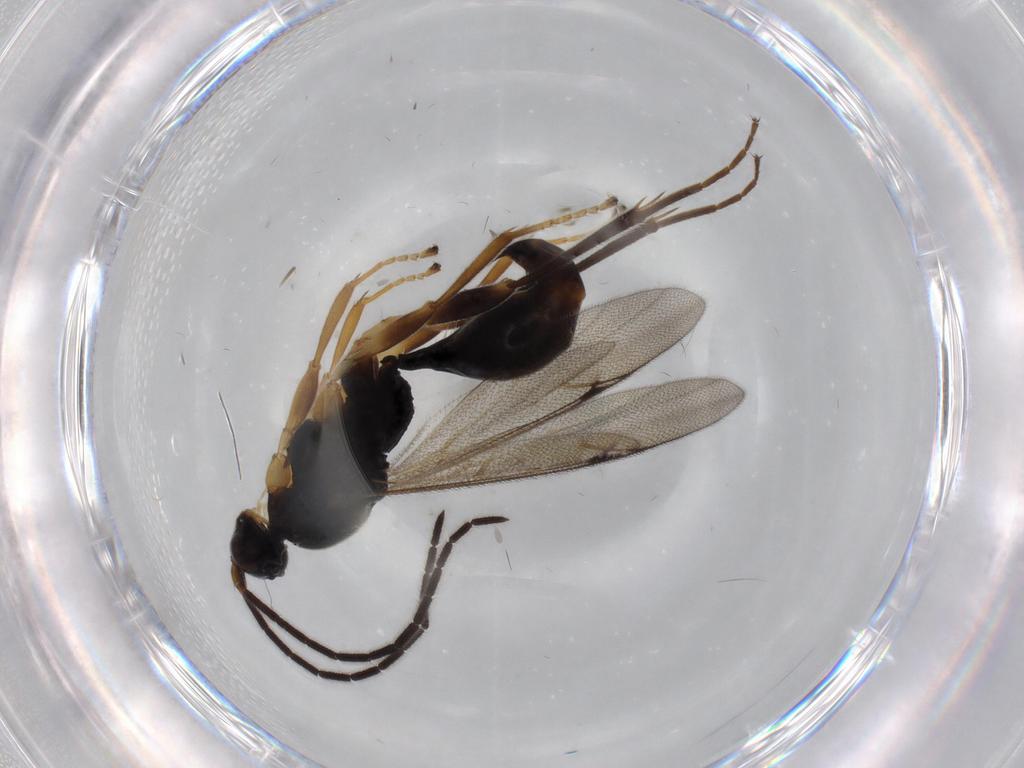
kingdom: Animalia
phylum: Arthropoda
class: Insecta
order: Hymenoptera
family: Proctotrupidae
